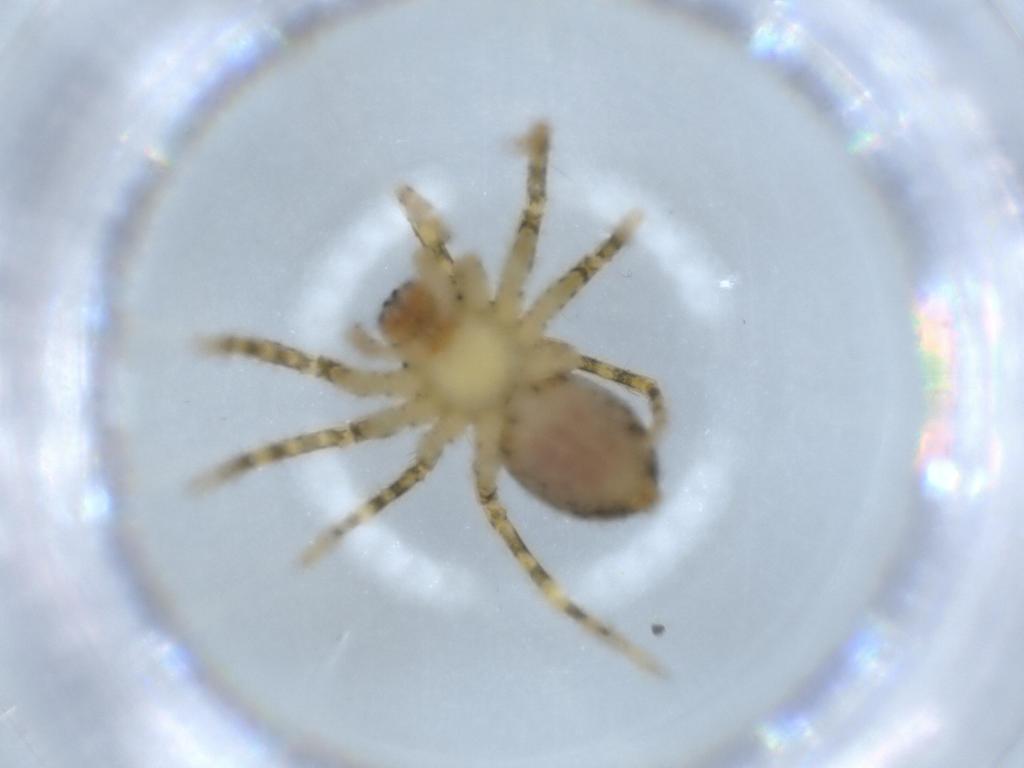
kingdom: Animalia
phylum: Arthropoda
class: Arachnida
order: Araneae
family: Ctenidae
